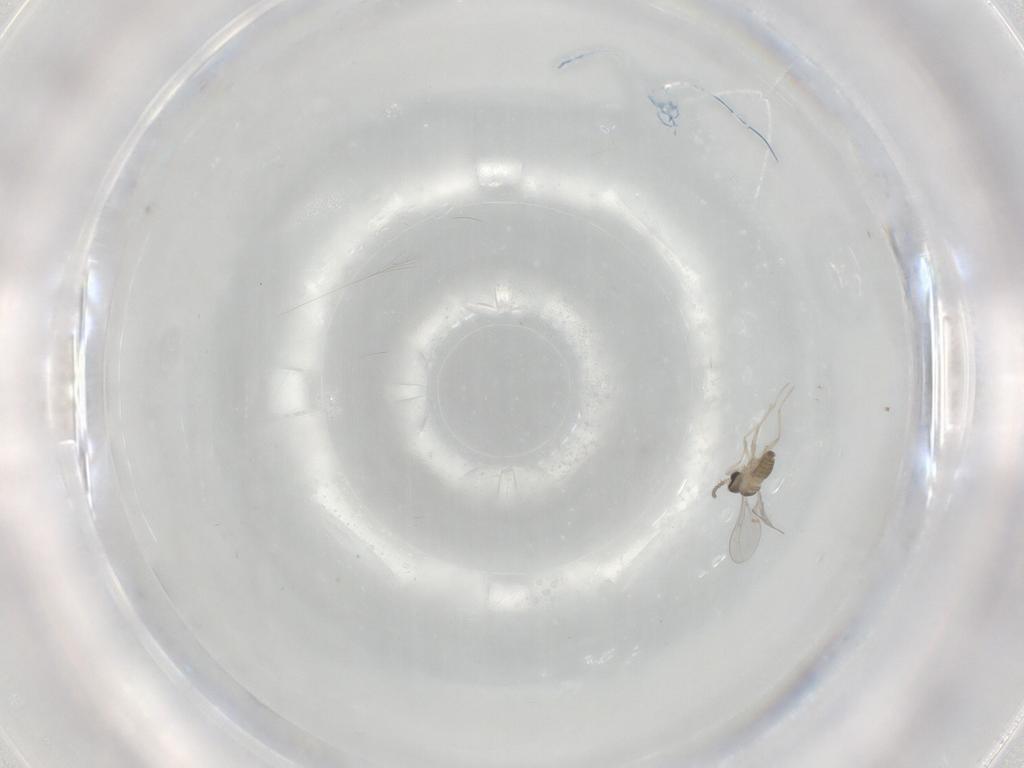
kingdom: Animalia
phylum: Arthropoda
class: Insecta
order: Diptera
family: Cecidomyiidae
